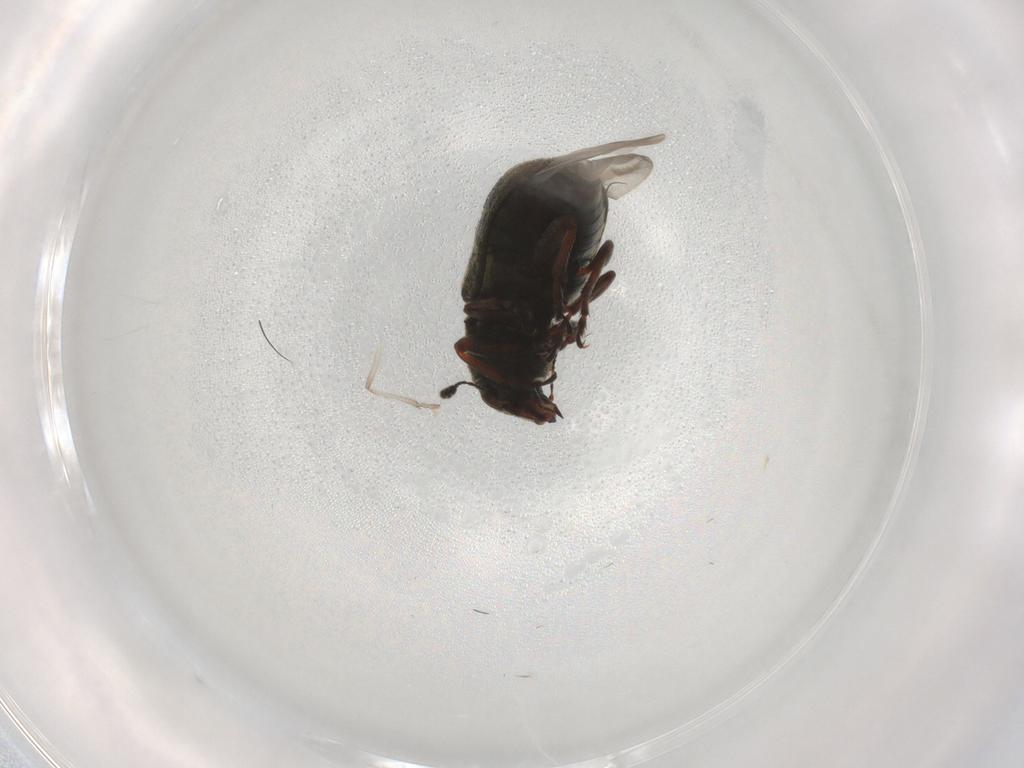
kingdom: Animalia
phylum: Arthropoda
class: Insecta
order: Coleoptera
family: Anthribidae
